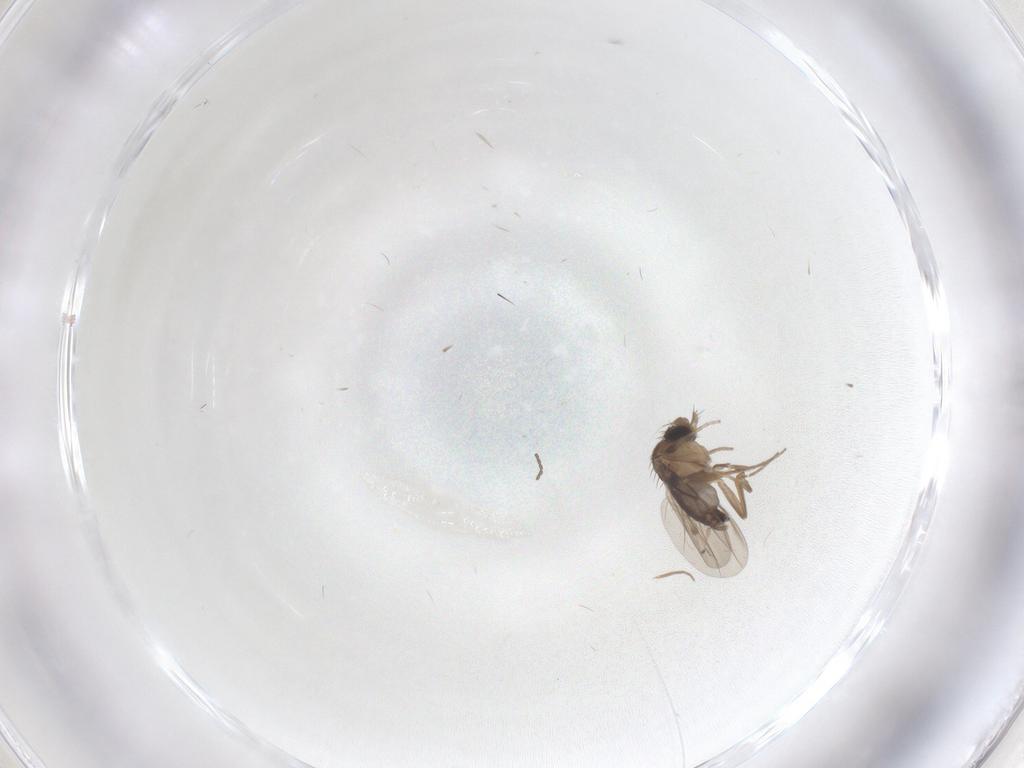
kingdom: Animalia
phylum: Arthropoda
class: Insecta
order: Diptera
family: Phoridae
